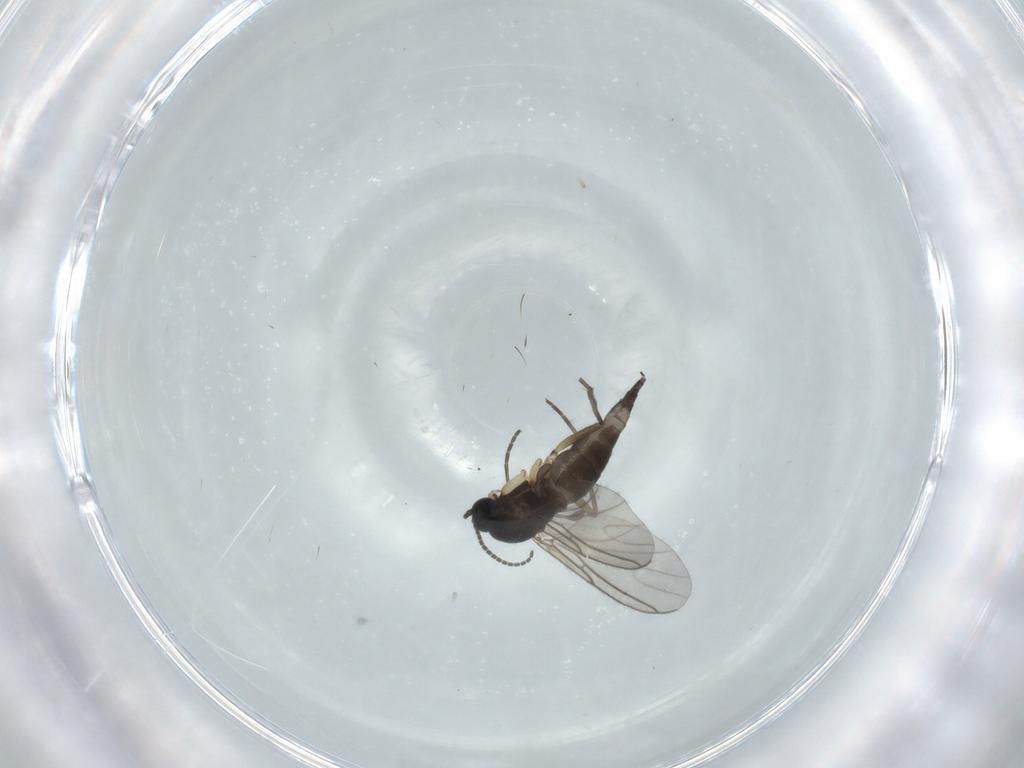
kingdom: Animalia
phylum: Arthropoda
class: Insecta
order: Diptera
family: Sciaridae
